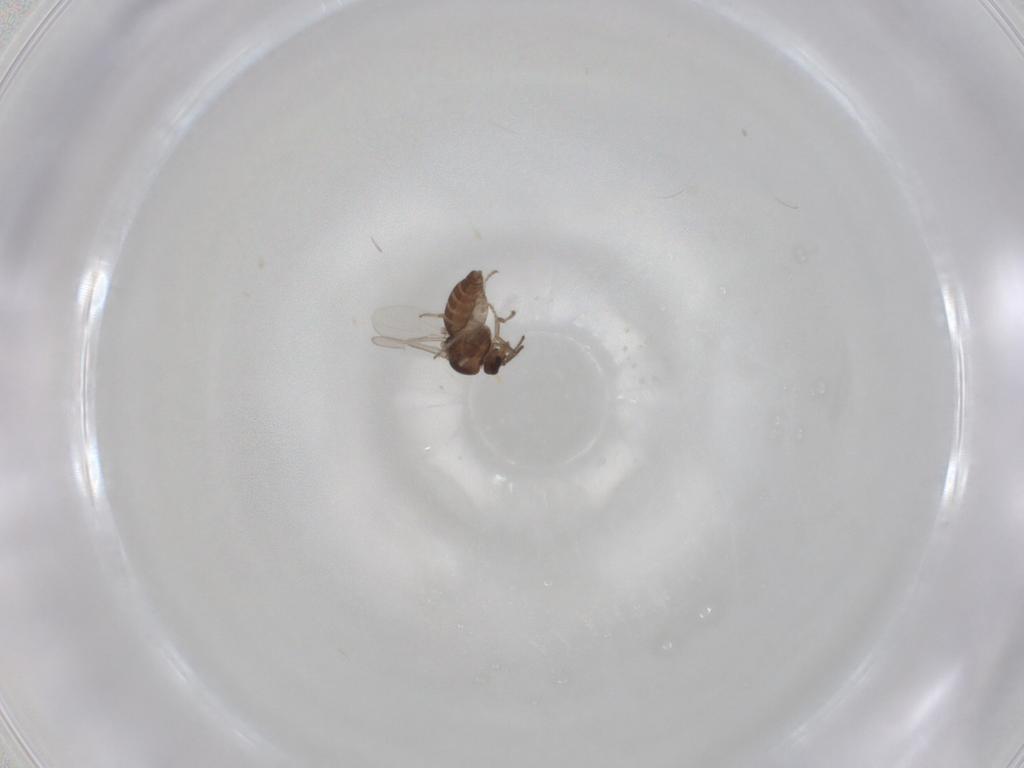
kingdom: Animalia
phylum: Arthropoda
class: Insecta
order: Diptera
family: Ceratopogonidae
